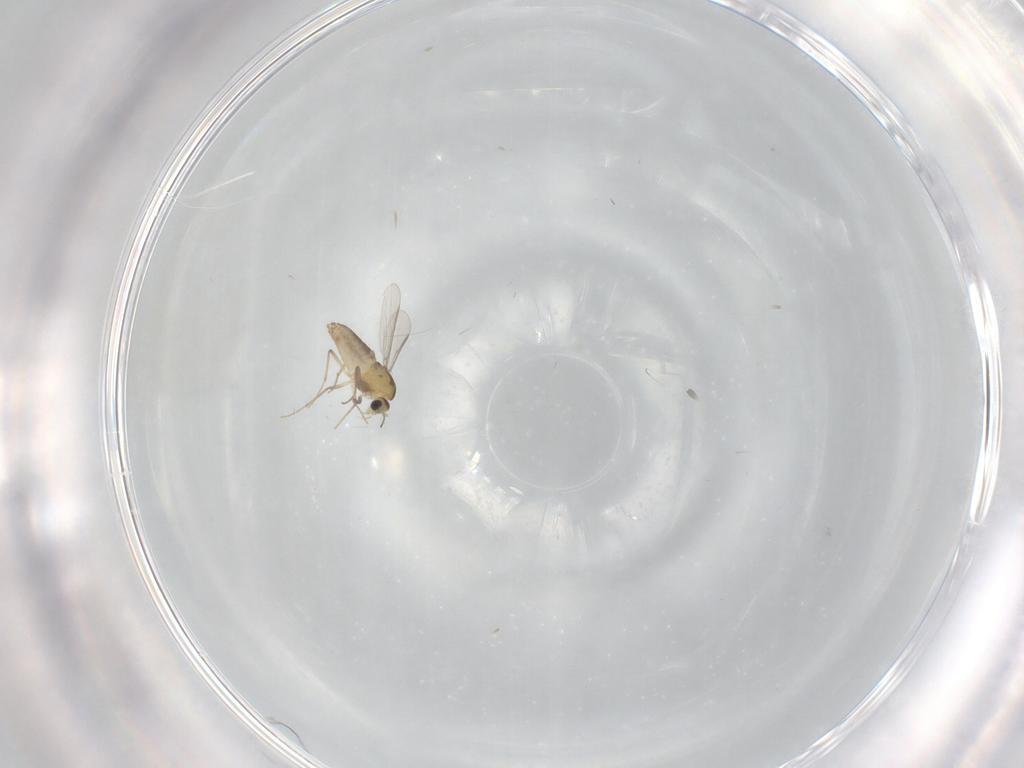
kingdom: Animalia
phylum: Arthropoda
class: Insecta
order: Diptera
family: Chironomidae
